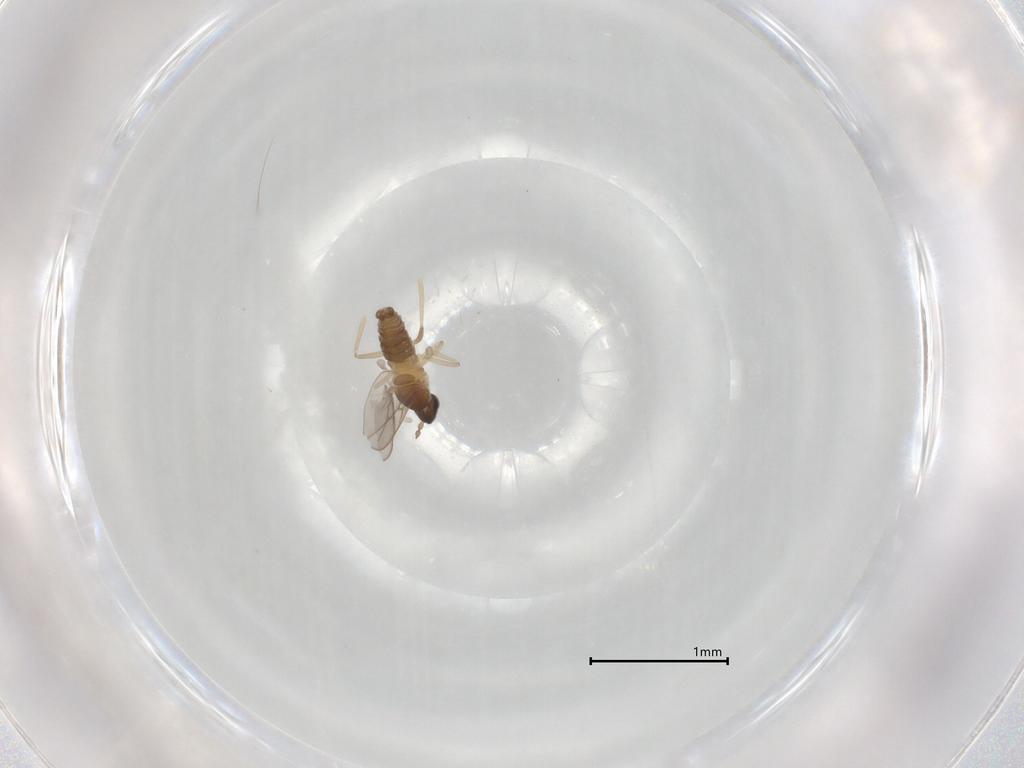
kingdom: Animalia
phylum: Arthropoda
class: Insecta
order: Diptera
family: Cecidomyiidae
